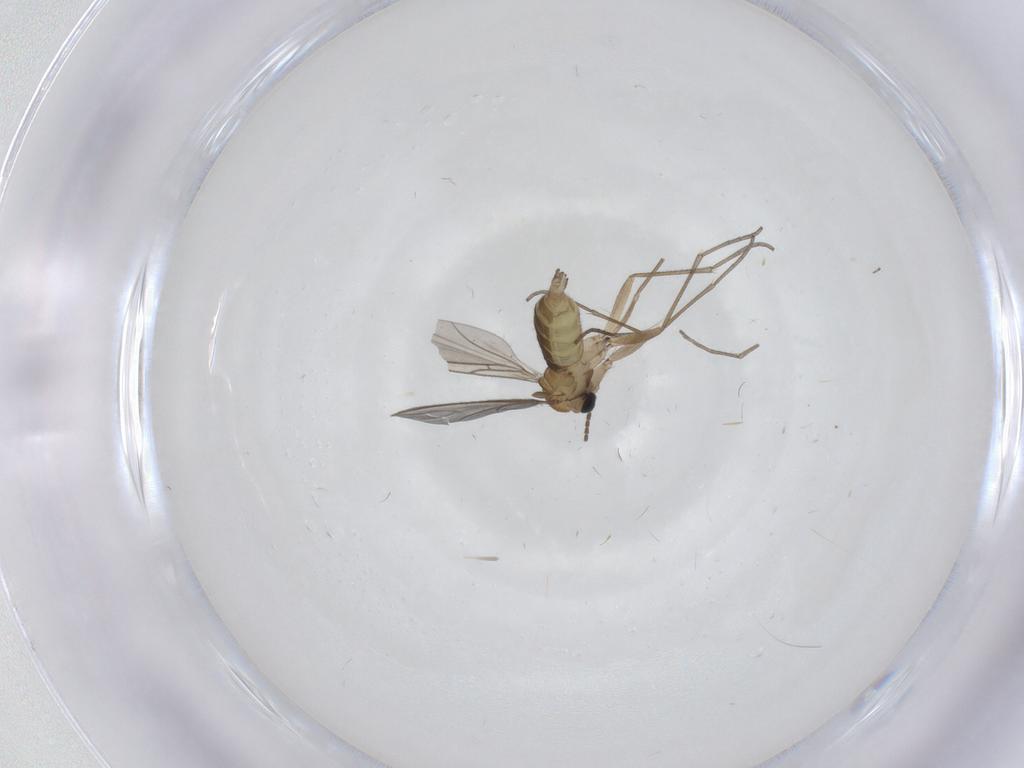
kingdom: Animalia
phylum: Arthropoda
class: Insecta
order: Diptera
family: Sciaridae
